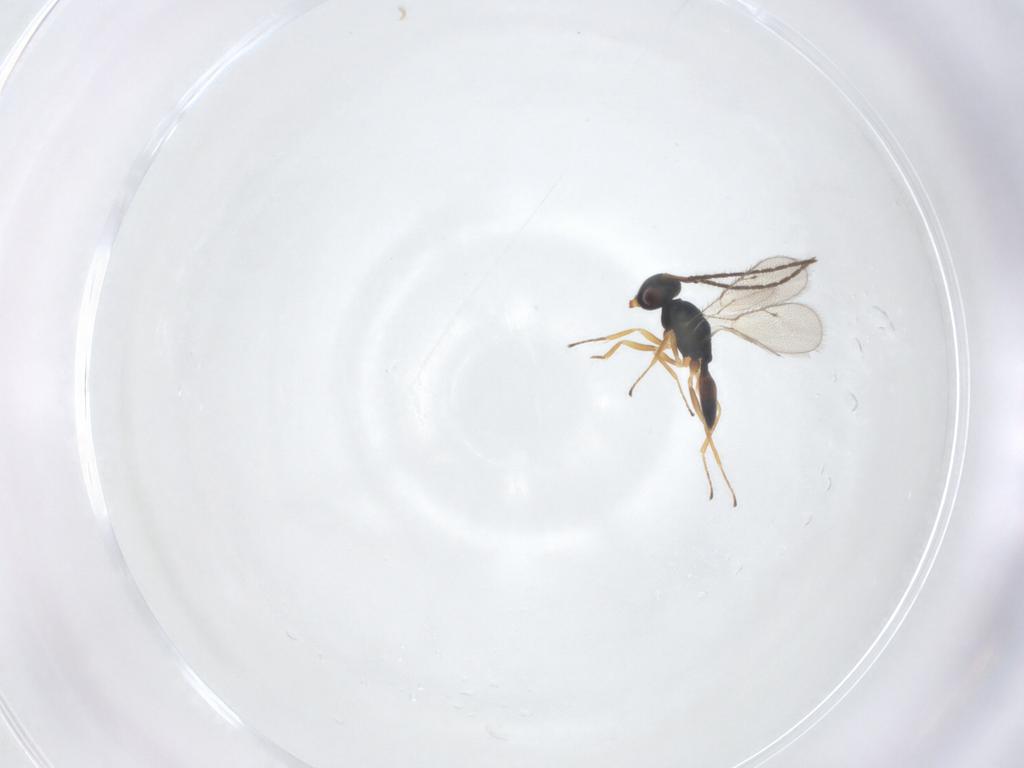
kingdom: Animalia
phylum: Arthropoda
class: Insecta
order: Hymenoptera
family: Pteromalidae
